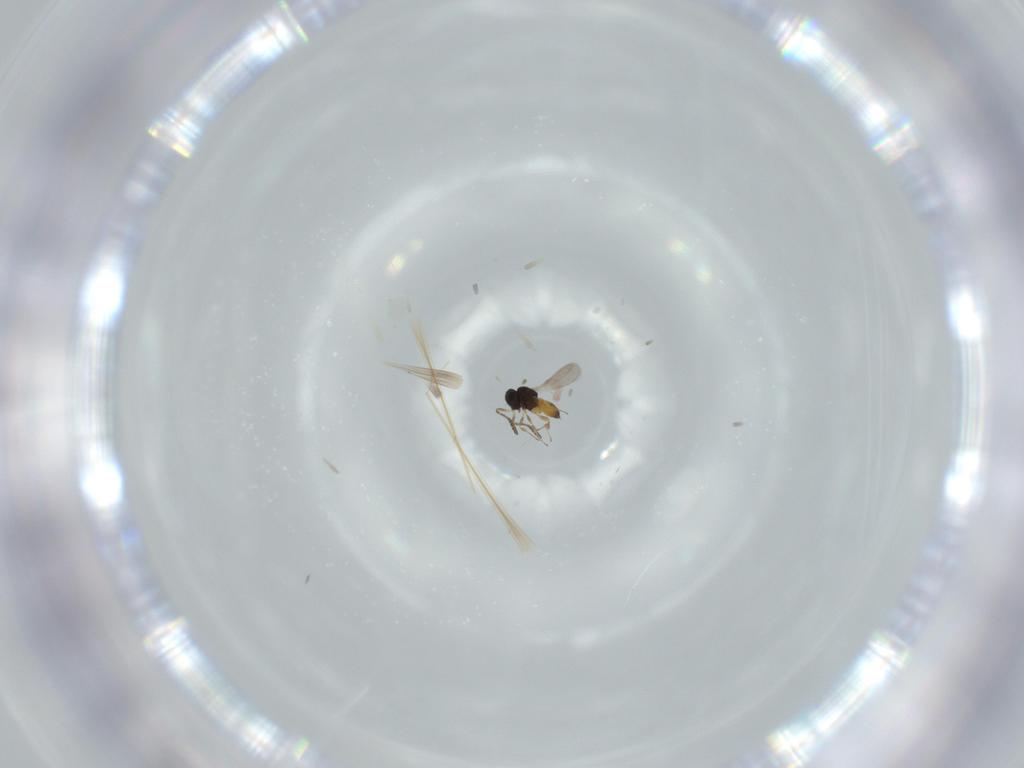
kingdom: Animalia
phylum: Arthropoda
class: Insecta
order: Hymenoptera
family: Scelionidae
